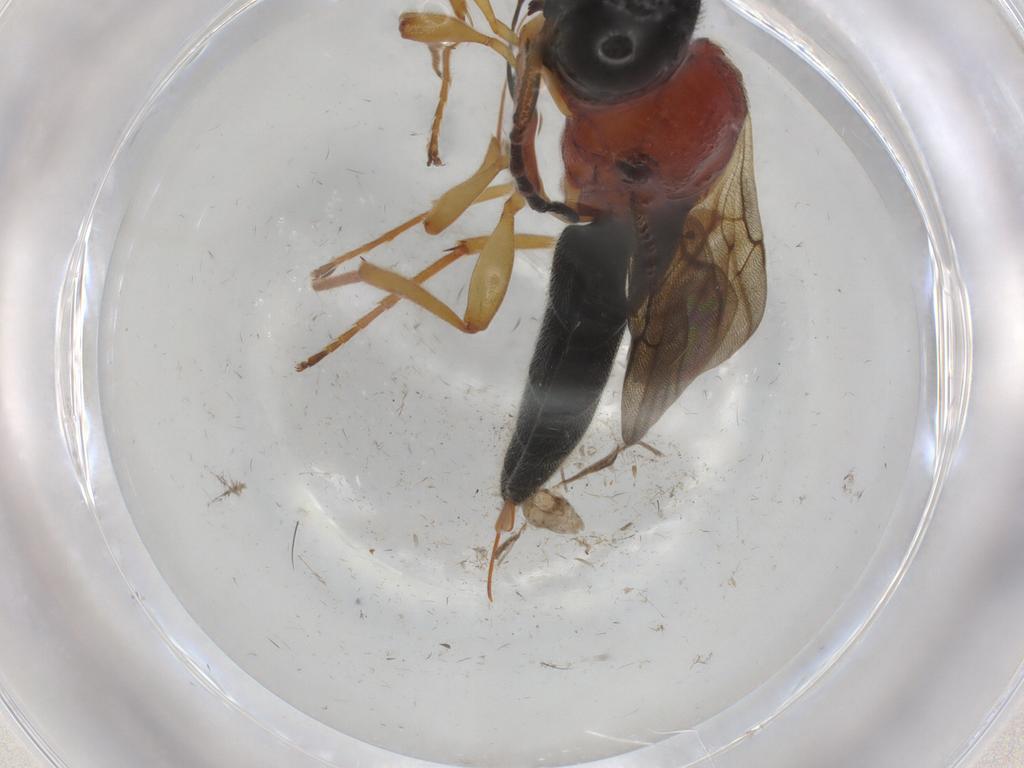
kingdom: Animalia
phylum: Arthropoda
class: Insecta
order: Hymenoptera
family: Platygastridae
